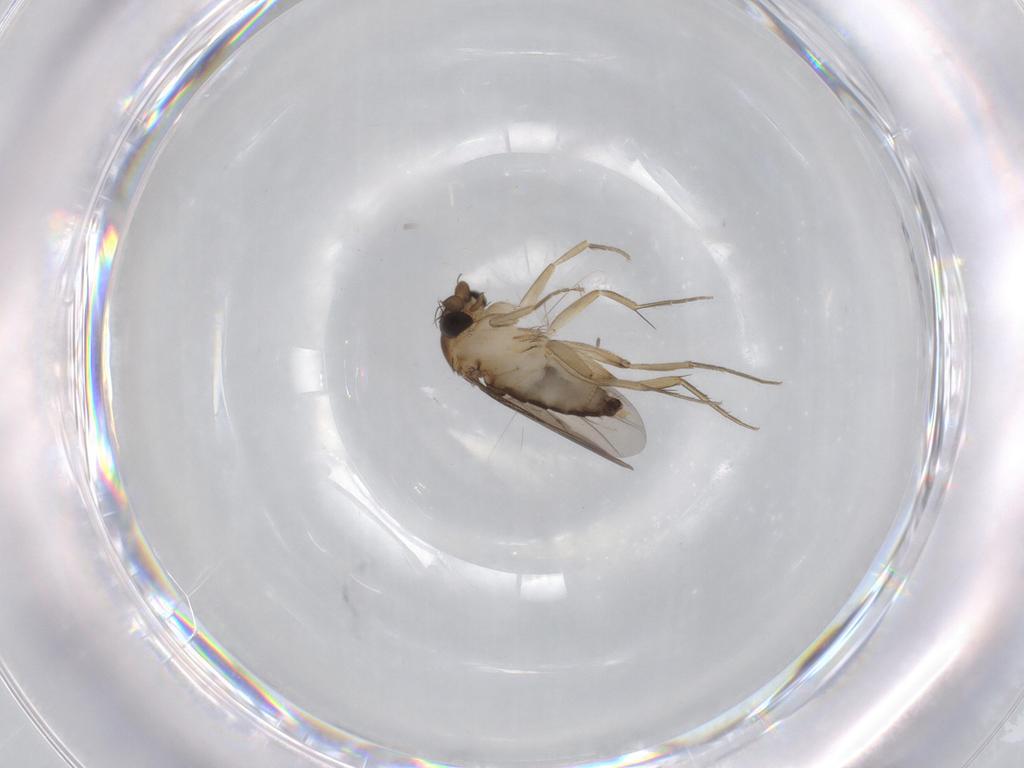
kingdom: Animalia
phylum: Arthropoda
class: Insecta
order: Diptera
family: Phoridae
